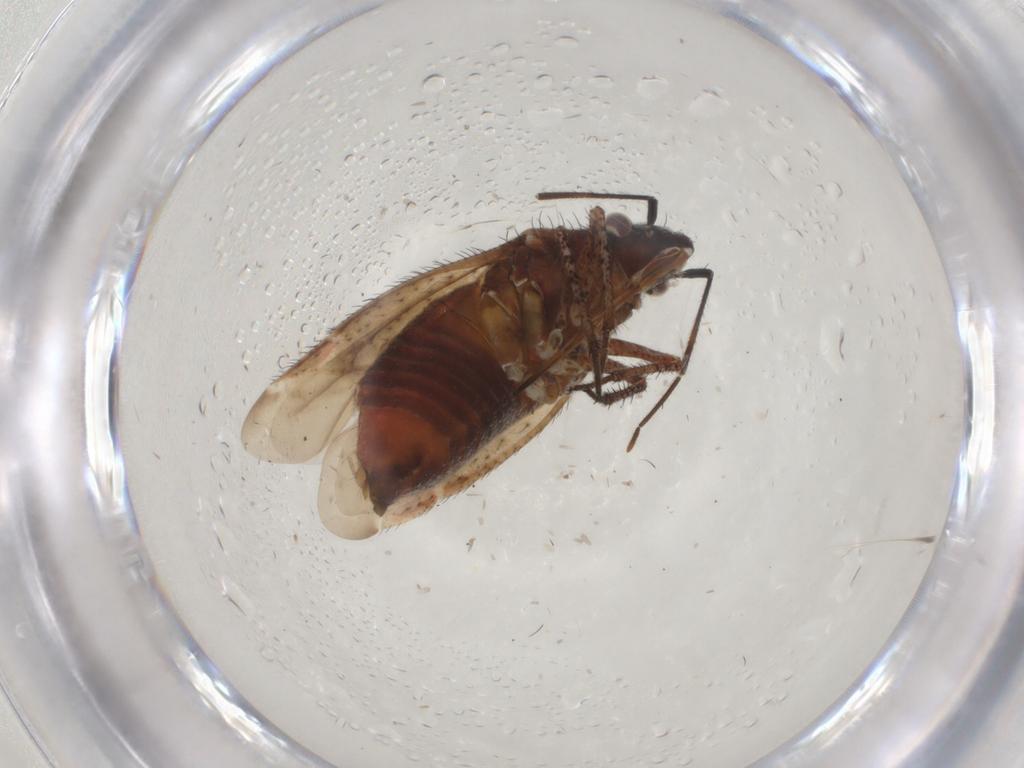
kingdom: Animalia
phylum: Arthropoda
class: Insecta
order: Hemiptera
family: Miridae
